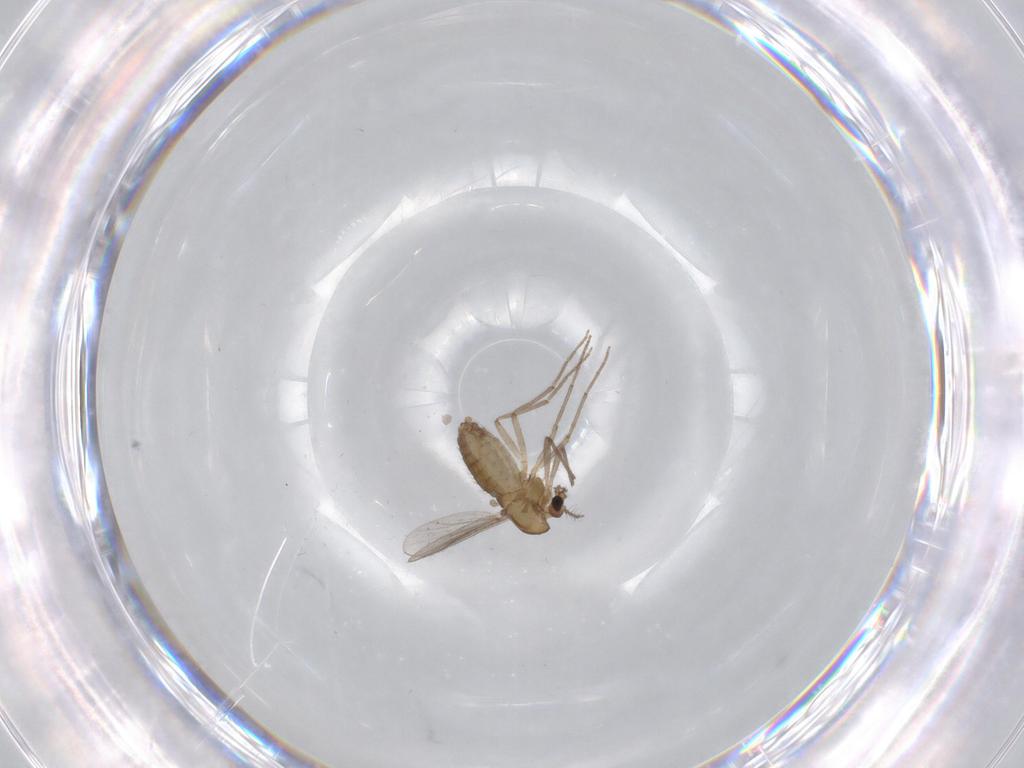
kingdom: Animalia
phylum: Arthropoda
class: Insecta
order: Diptera
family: Chironomidae
